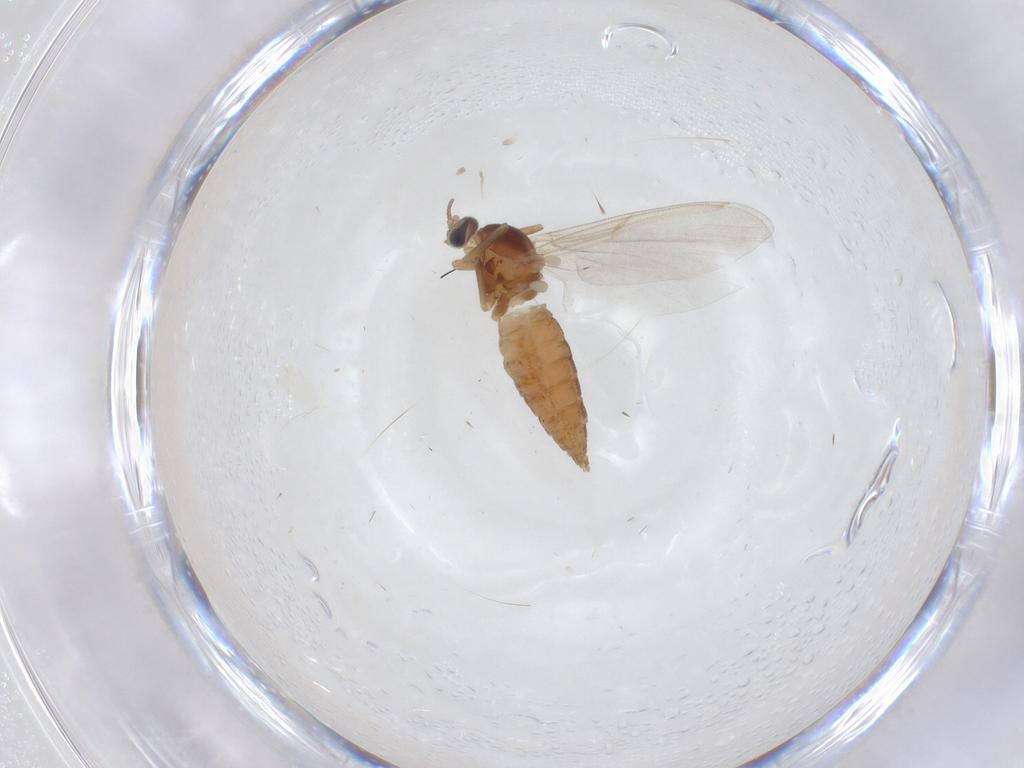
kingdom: Animalia
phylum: Arthropoda
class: Insecta
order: Diptera
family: Cecidomyiidae
